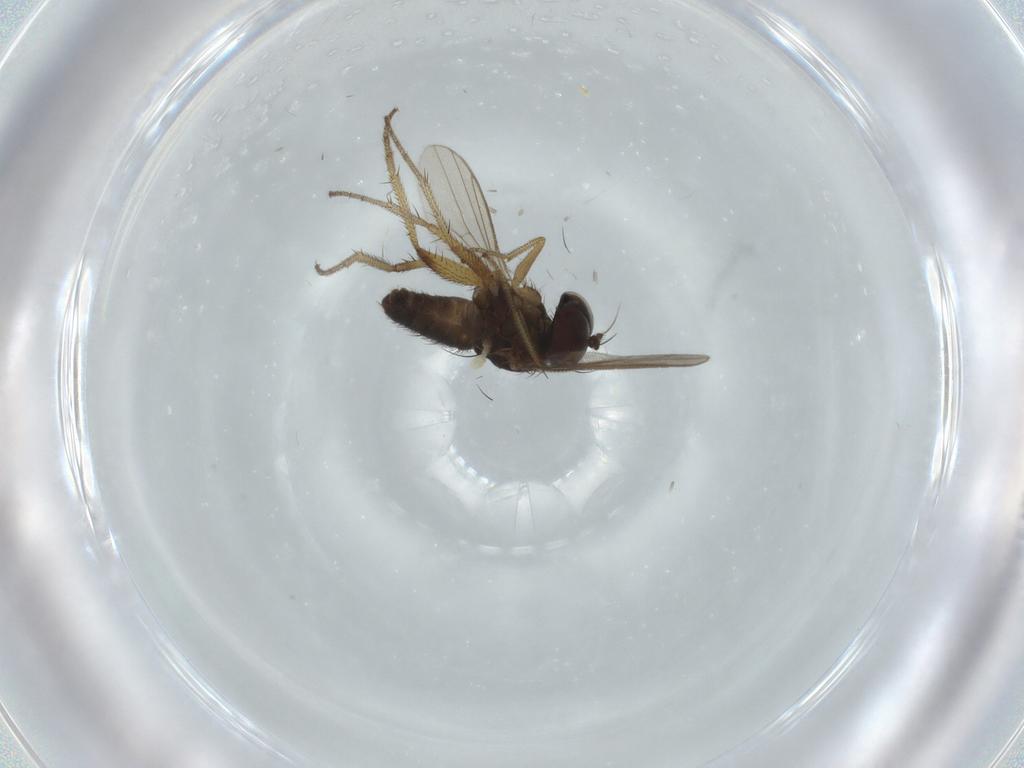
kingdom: Animalia
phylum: Arthropoda
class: Insecta
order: Diptera
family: Dolichopodidae
